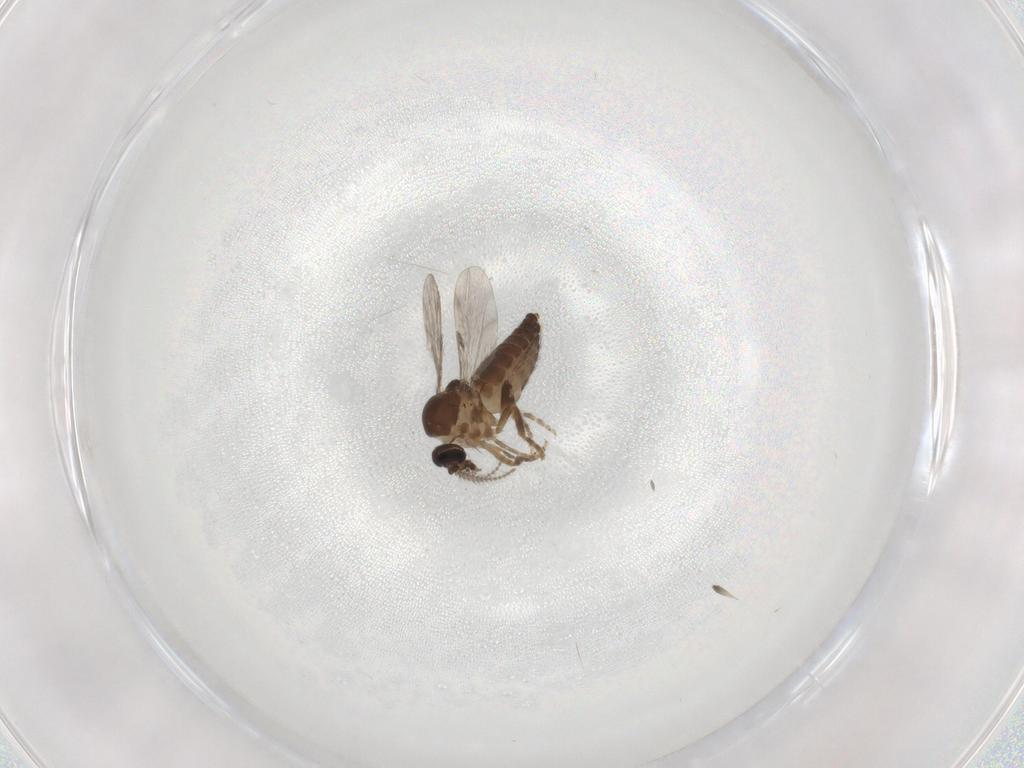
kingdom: Animalia
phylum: Arthropoda
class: Insecta
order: Diptera
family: Ceratopogonidae
